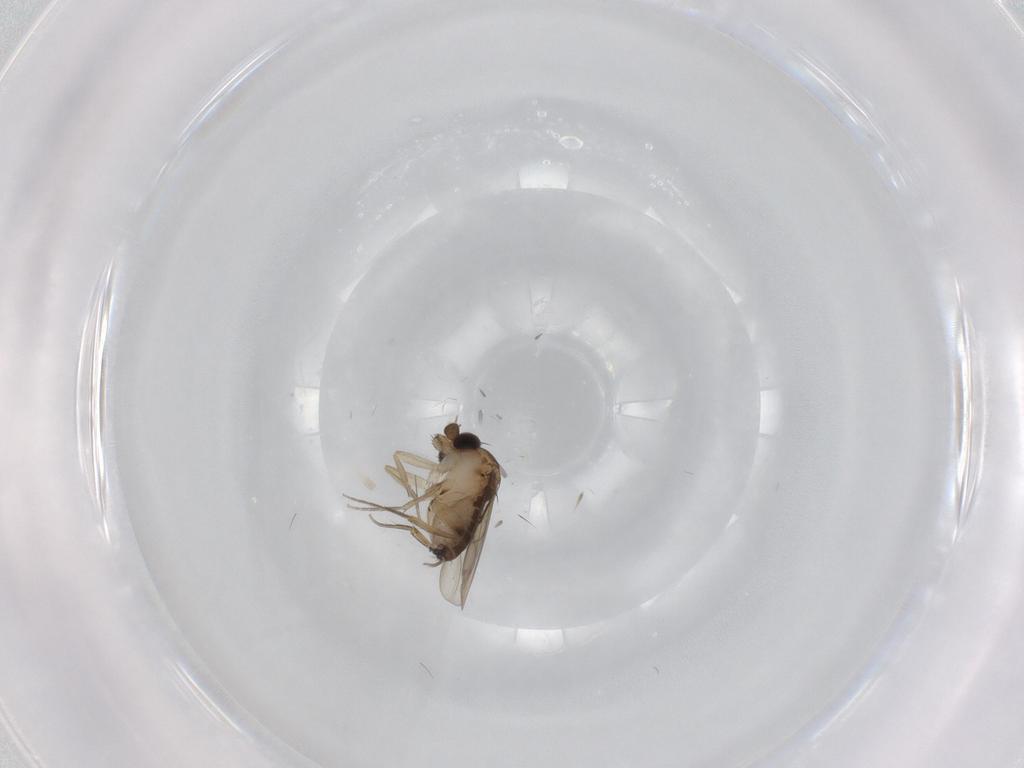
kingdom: Animalia
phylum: Arthropoda
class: Insecta
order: Diptera
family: Phoridae
